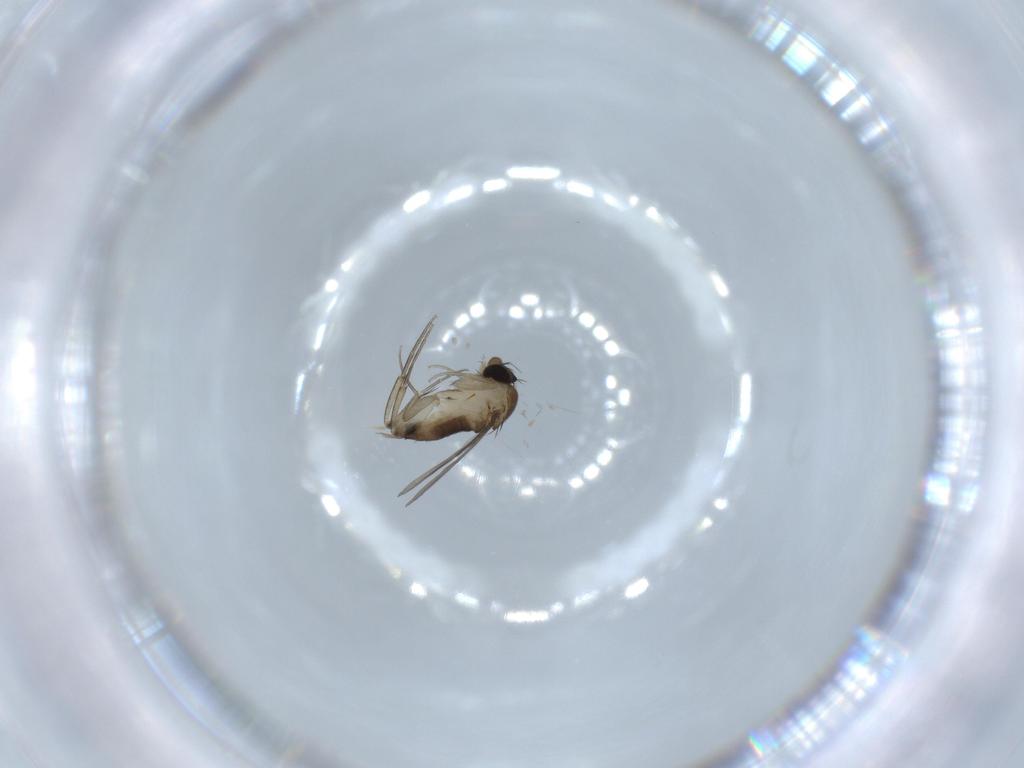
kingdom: Animalia
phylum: Arthropoda
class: Insecta
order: Diptera
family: Phoridae
